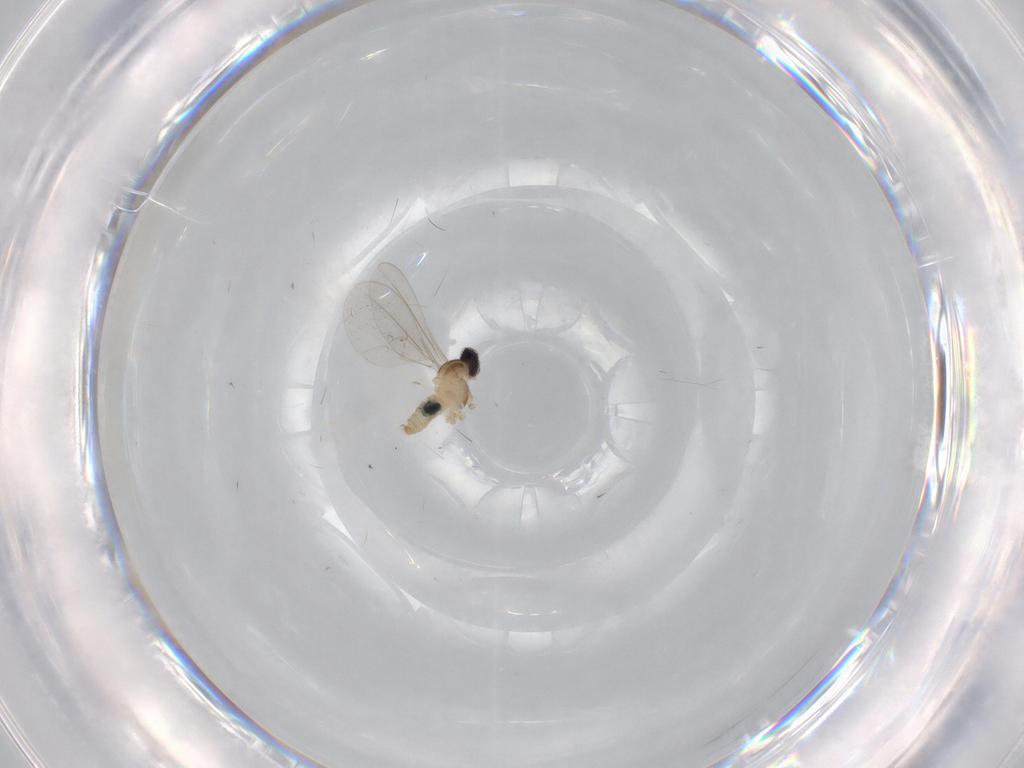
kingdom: Animalia
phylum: Arthropoda
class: Insecta
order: Diptera
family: Cecidomyiidae
